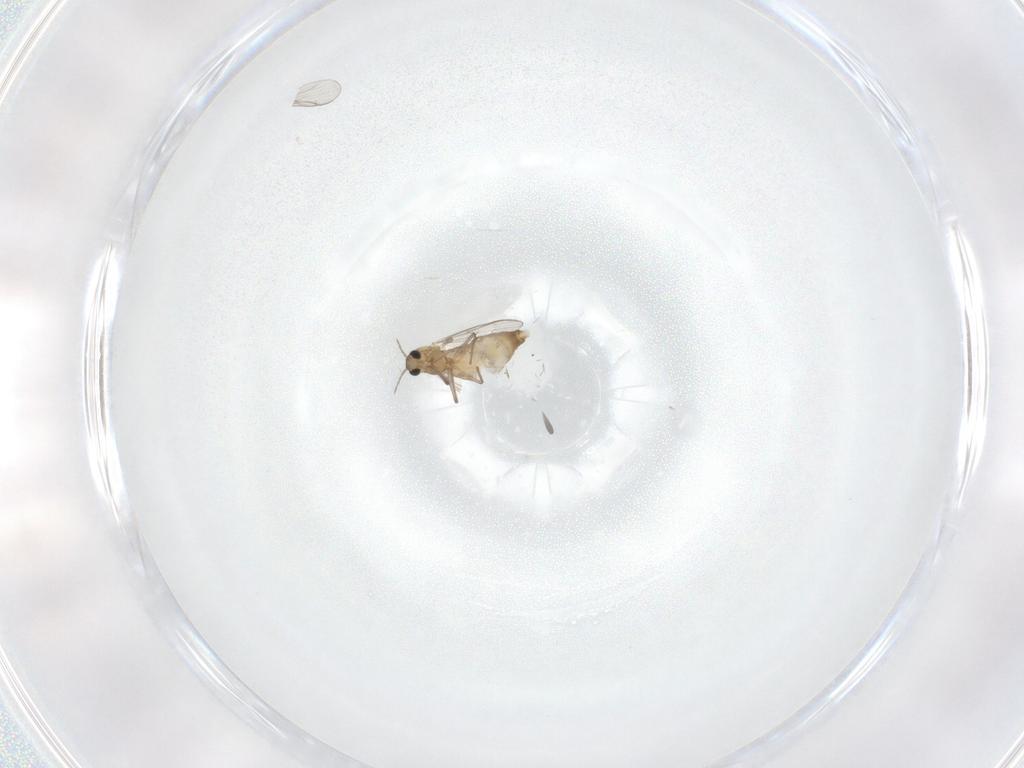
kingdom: Animalia
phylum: Arthropoda
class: Insecta
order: Diptera
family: Chironomidae
